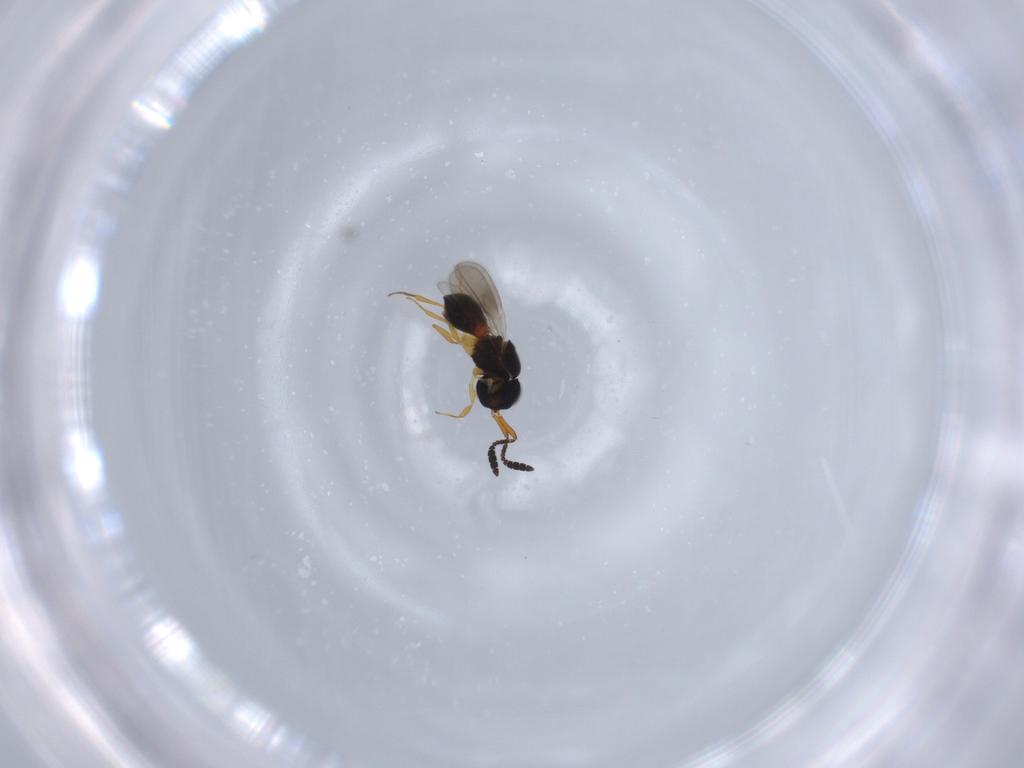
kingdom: Animalia
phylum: Arthropoda
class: Insecta
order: Hymenoptera
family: Scelionidae
